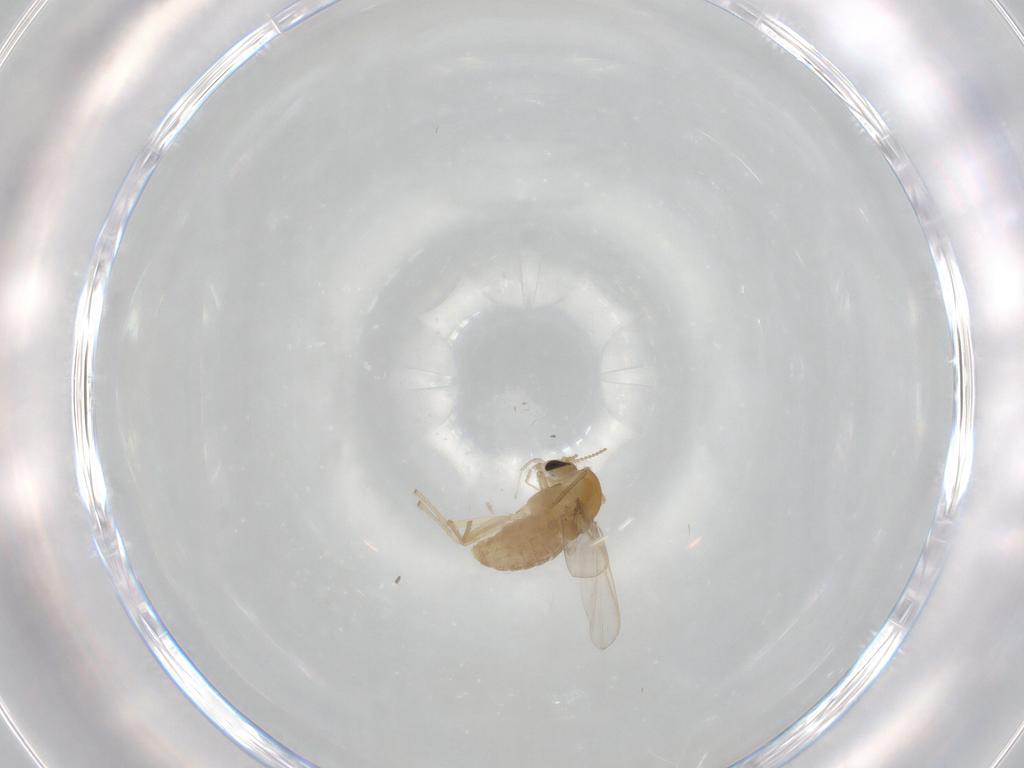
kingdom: Animalia
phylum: Arthropoda
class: Insecta
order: Diptera
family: Chironomidae
